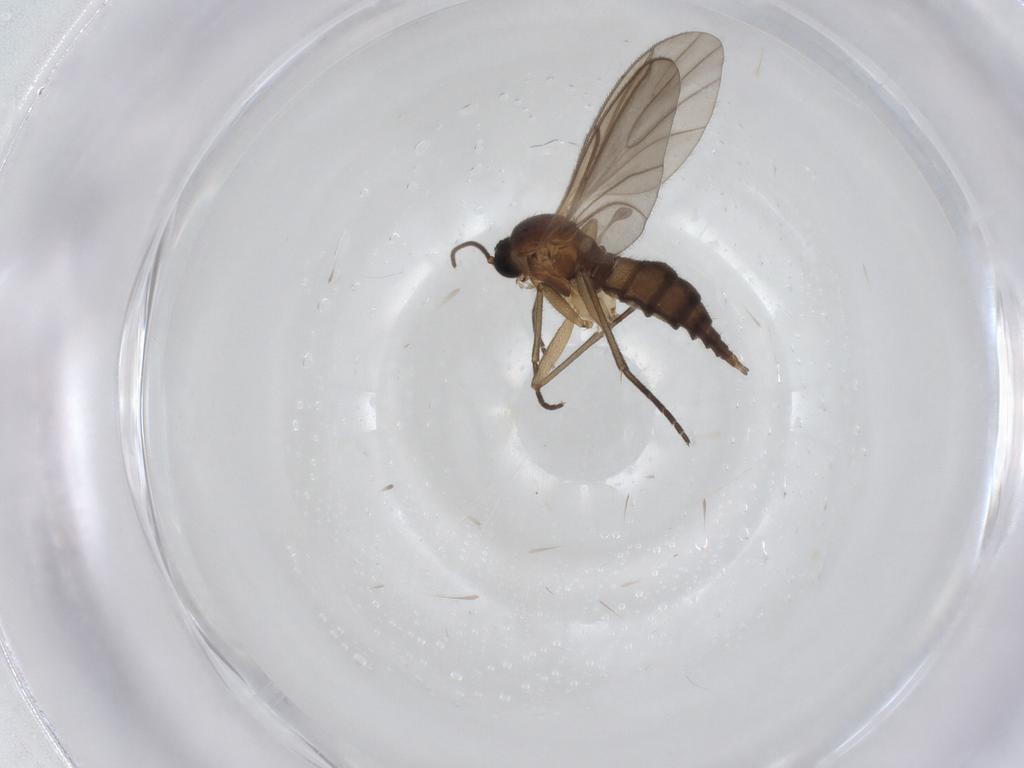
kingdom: Animalia
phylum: Arthropoda
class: Insecta
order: Diptera
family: Sciaridae
